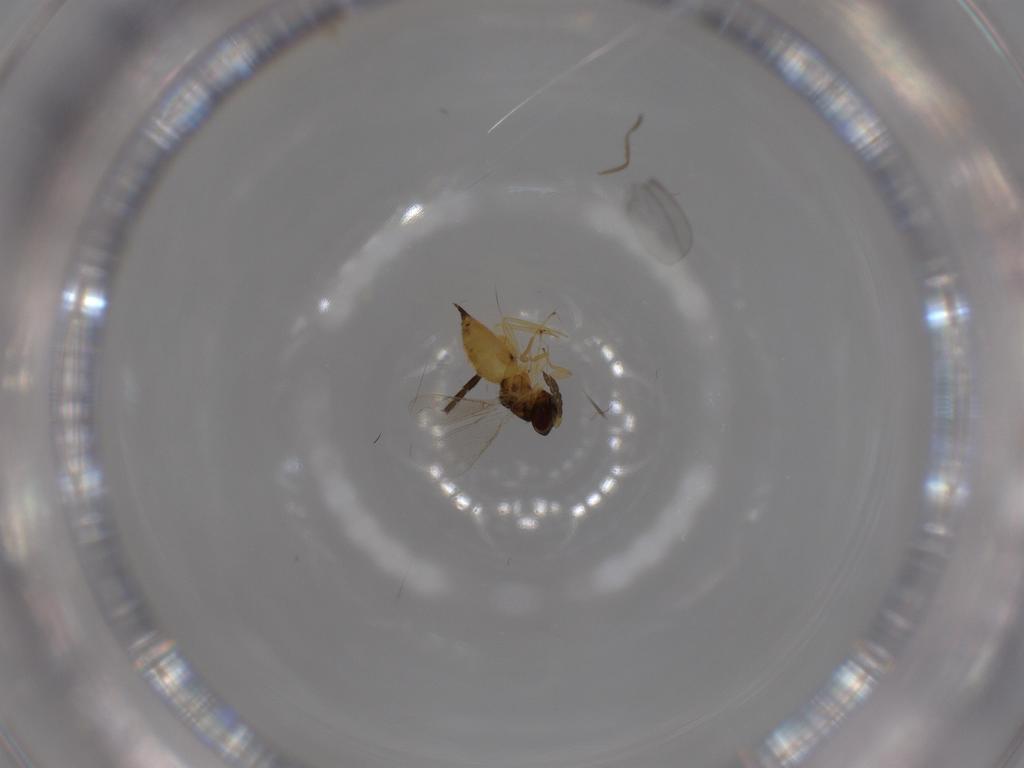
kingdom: Animalia
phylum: Arthropoda
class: Insecta
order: Hymenoptera
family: Eulophidae
